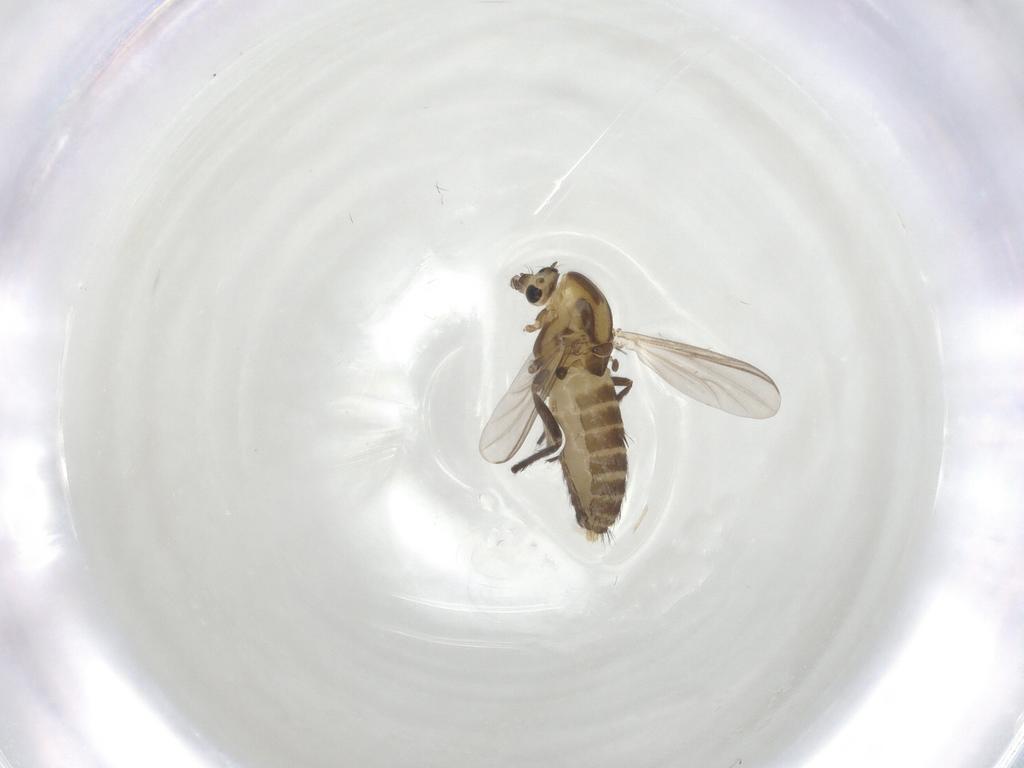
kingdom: Animalia
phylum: Arthropoda
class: Insecta
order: Diptera
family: Chironomidae
